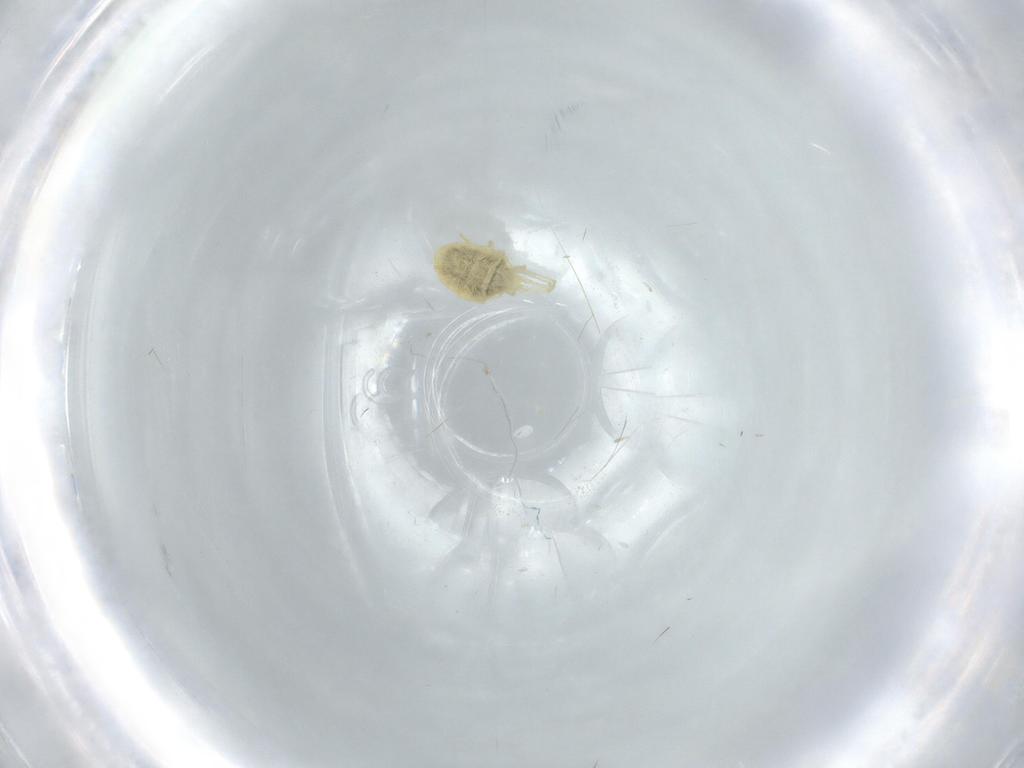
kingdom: Animalia
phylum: Arthropoda
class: Arachnida
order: Trombidiformes
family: Tetranychidae
